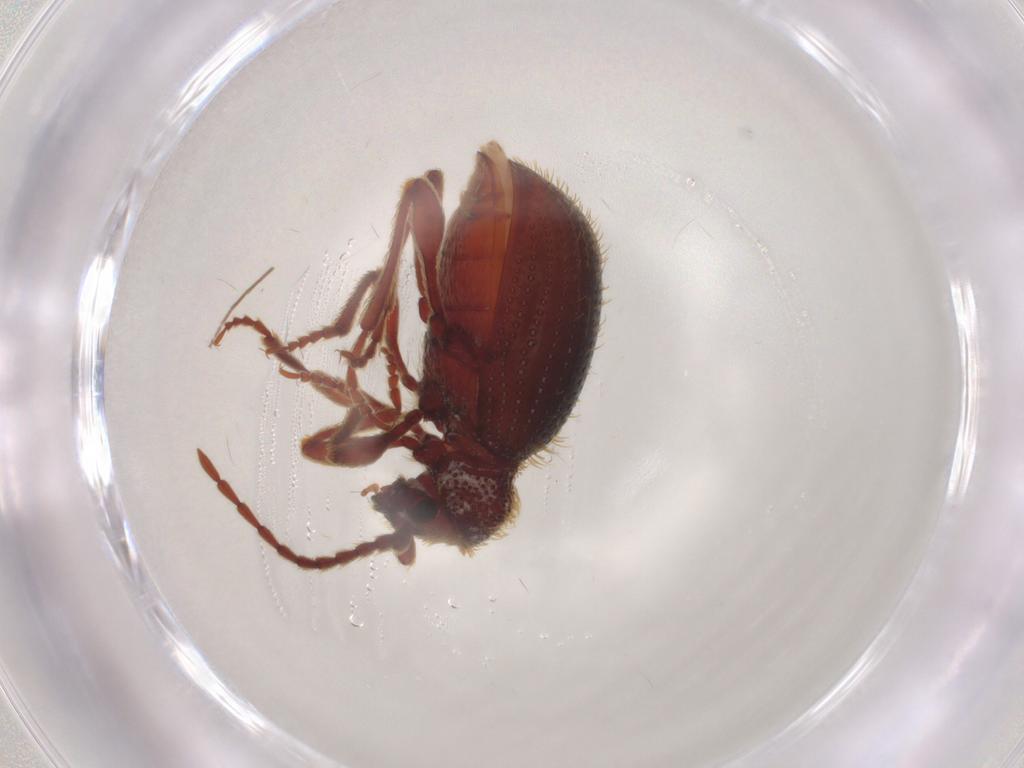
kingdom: Animalia
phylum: Arthropoda
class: Insecta
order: Coleoptera
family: Ptinidae
